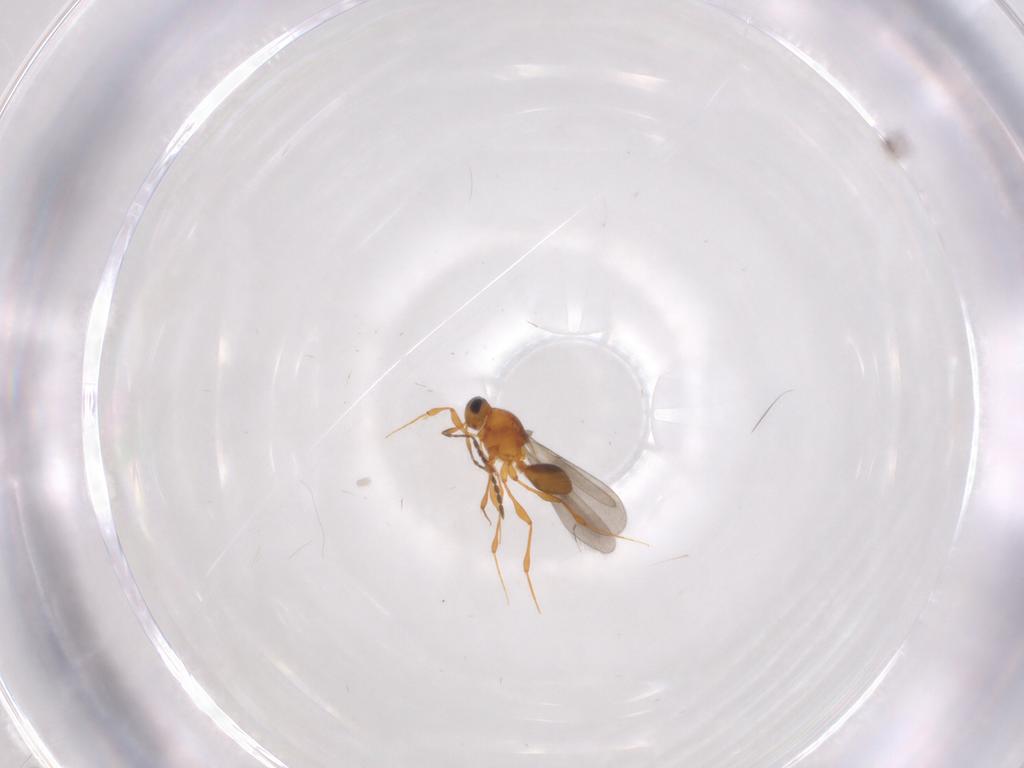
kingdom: Animalia
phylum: Arthropoda
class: Insecta
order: Hymenoptera
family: Platygastridae
